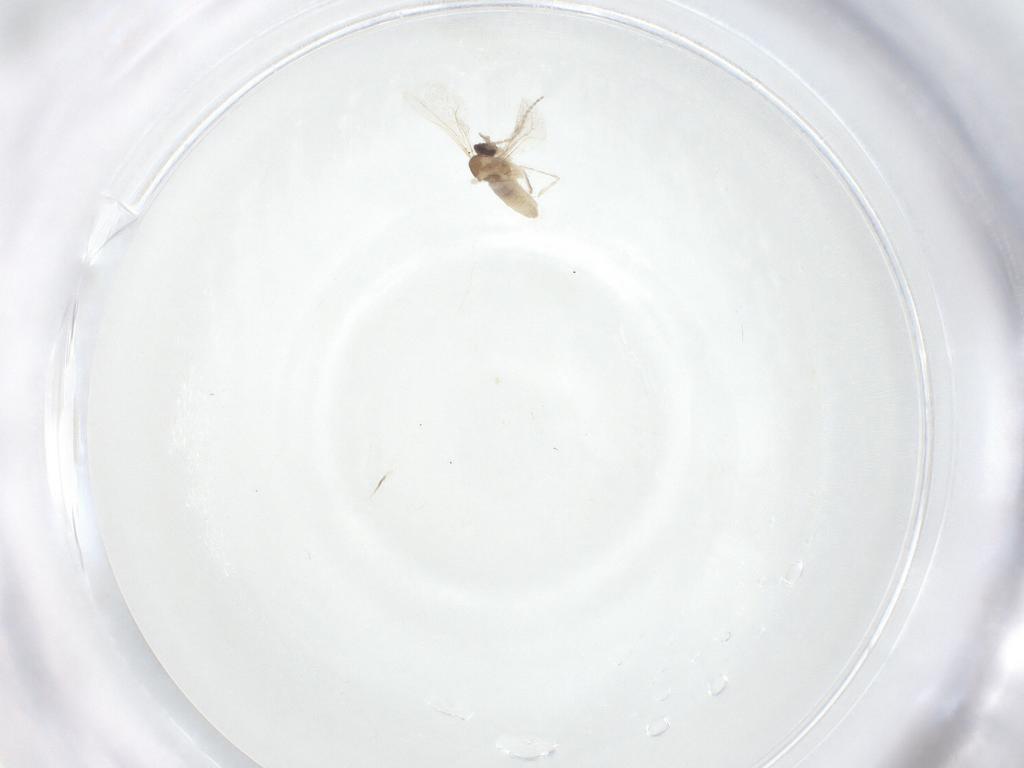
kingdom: Animalia
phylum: Arthropoda
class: Insecta
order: Diptera
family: Cecidomyiidae
